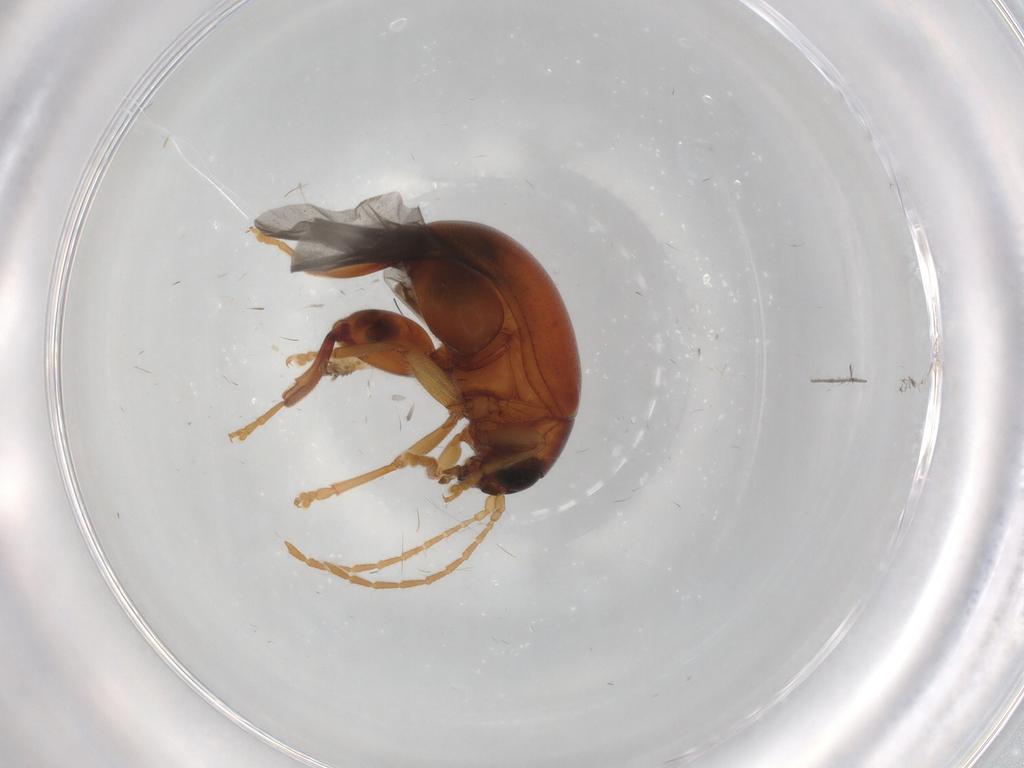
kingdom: Animalia
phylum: Arthropoda
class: Insecta
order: Coleoptera
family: Chrysomelidae
